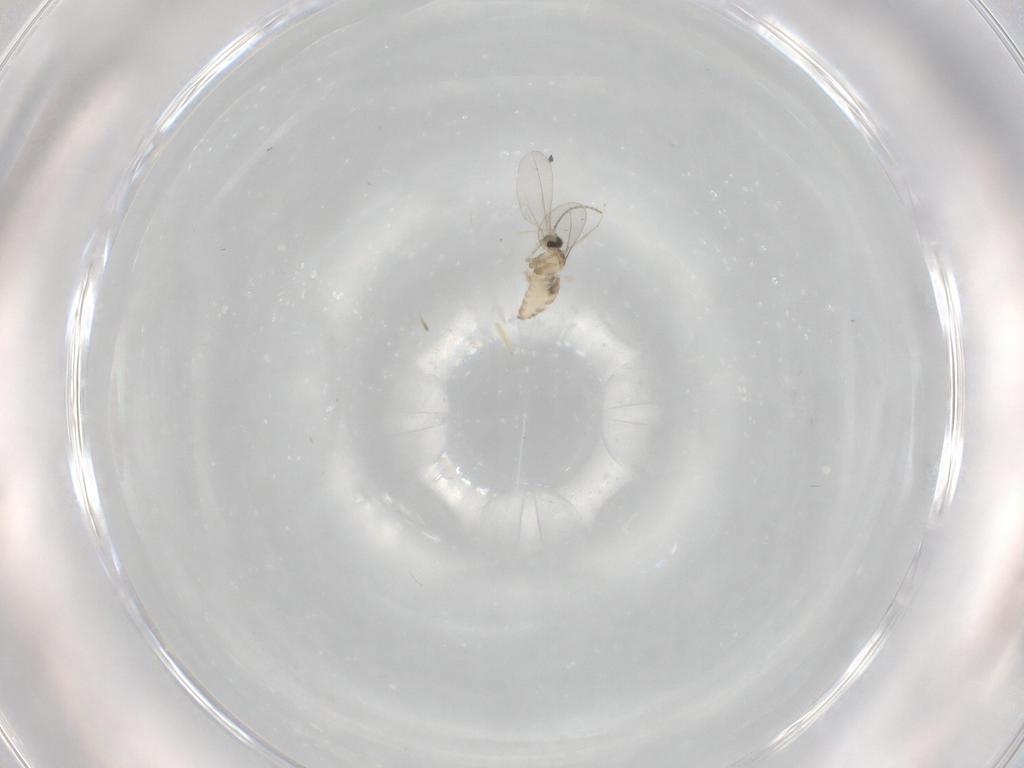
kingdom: Animalia
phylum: Arthropoda
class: Insecta
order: Diptera
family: Cecidomyiidae
